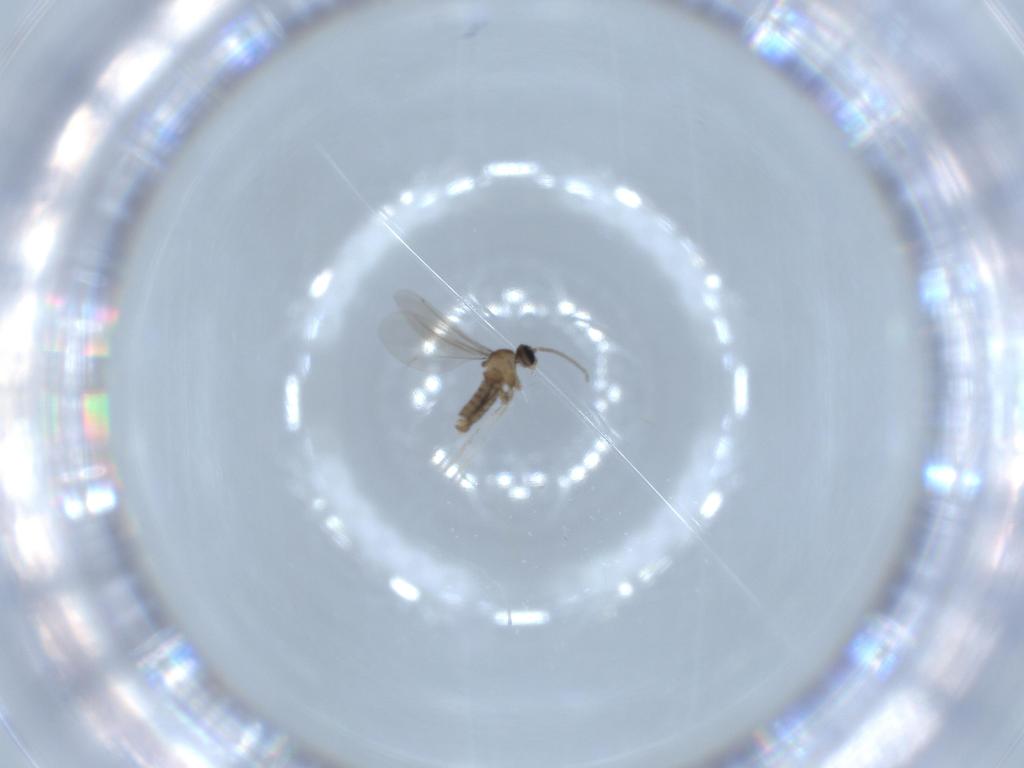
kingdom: Animalia
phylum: Arthropoda
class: Insecta
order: Diptera
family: Cecidomyiidae
